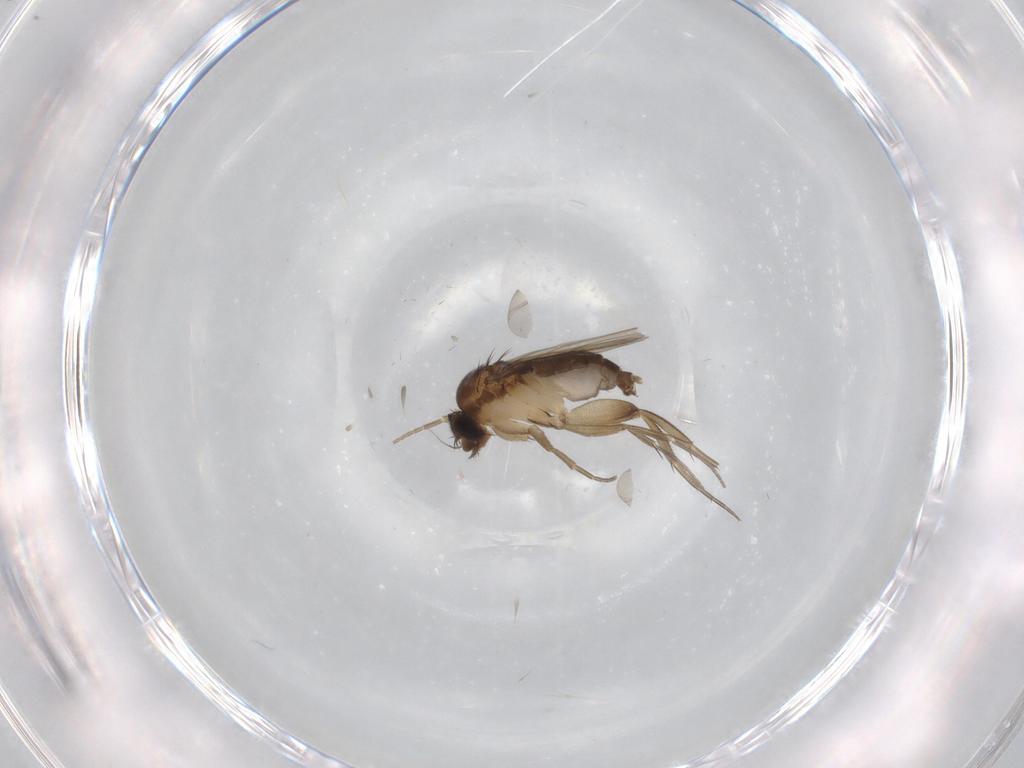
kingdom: Animalia
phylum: Arthropoda
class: Insecta
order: Diptera
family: Phoridae
